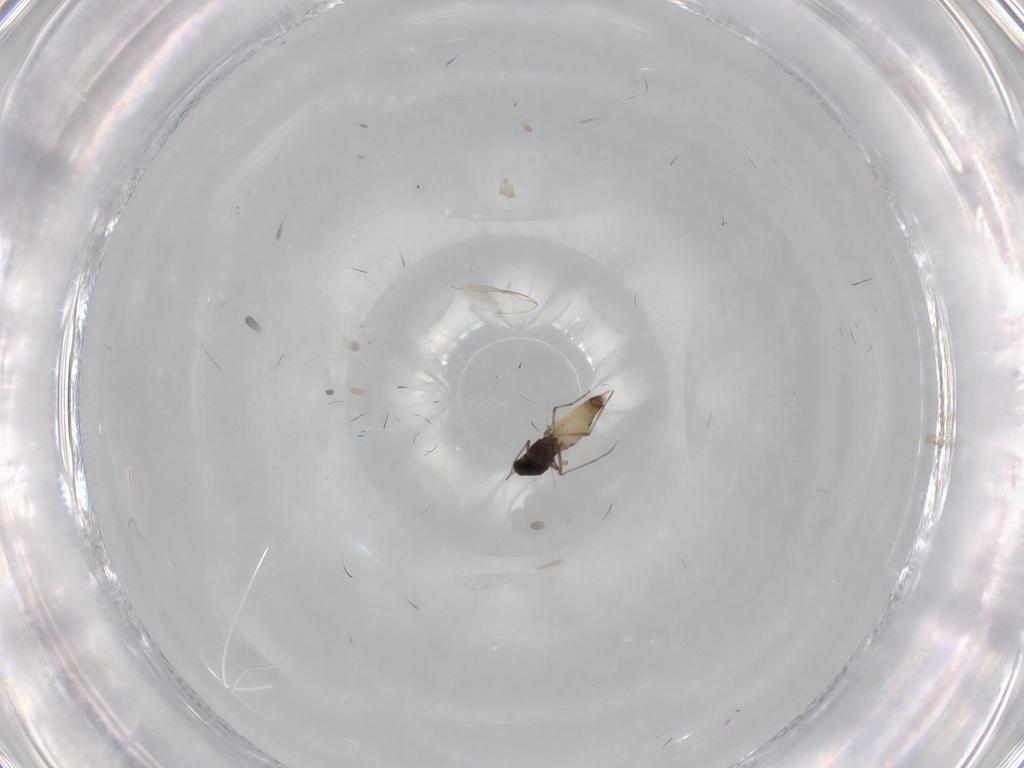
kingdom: Animalia
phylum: Arthropoda
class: Insecta
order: Diptera
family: Chironomidae
